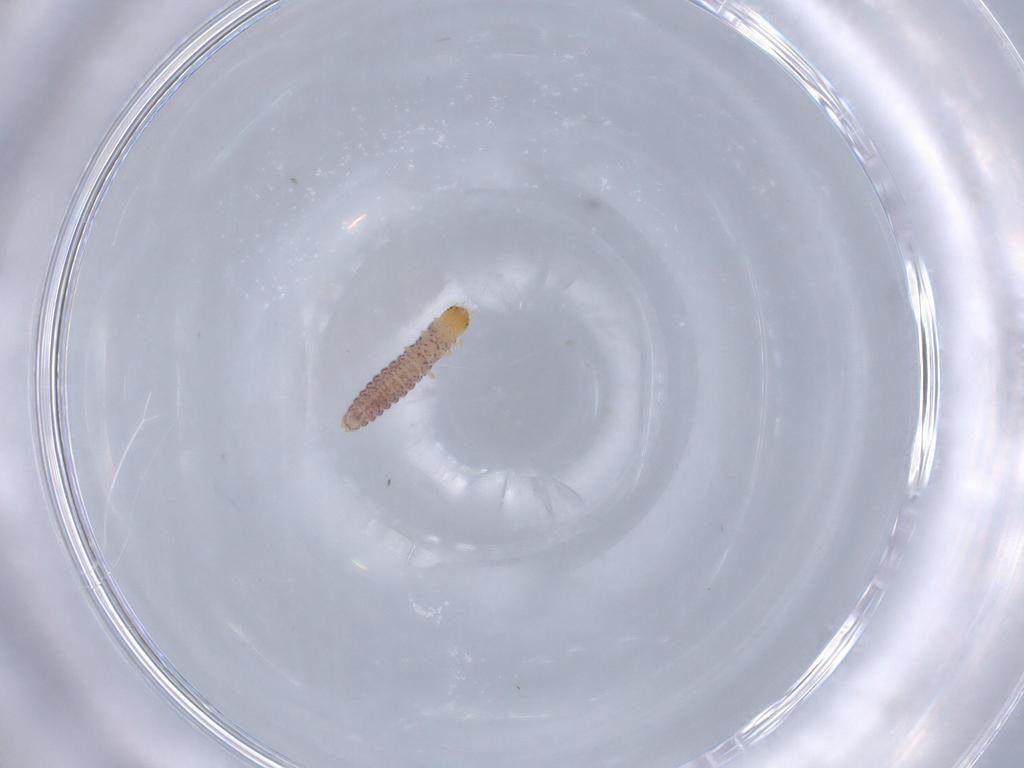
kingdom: Animalia
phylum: Arthropoda
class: Insecta
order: Coleoptera
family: Cleridae
